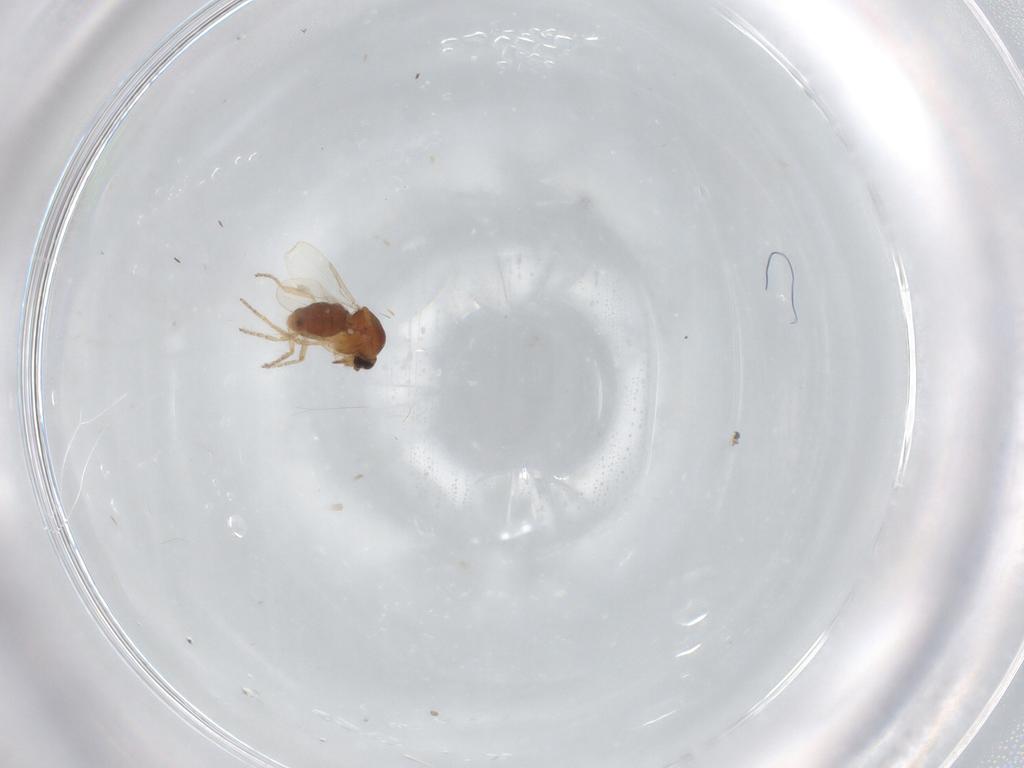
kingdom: Animalia
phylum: Arthropoda
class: Insecta
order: Diptera
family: Ceratopogonidae
